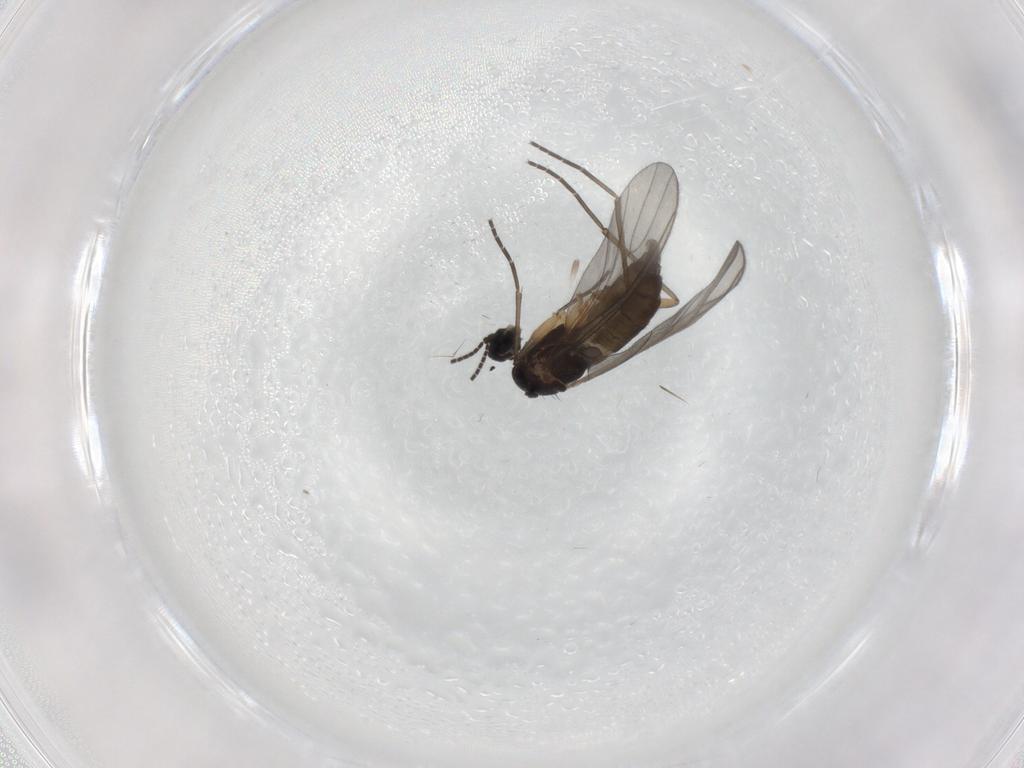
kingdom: Animalia
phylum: Arthropoda
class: Insecta
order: Diptera
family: Sciaridae
